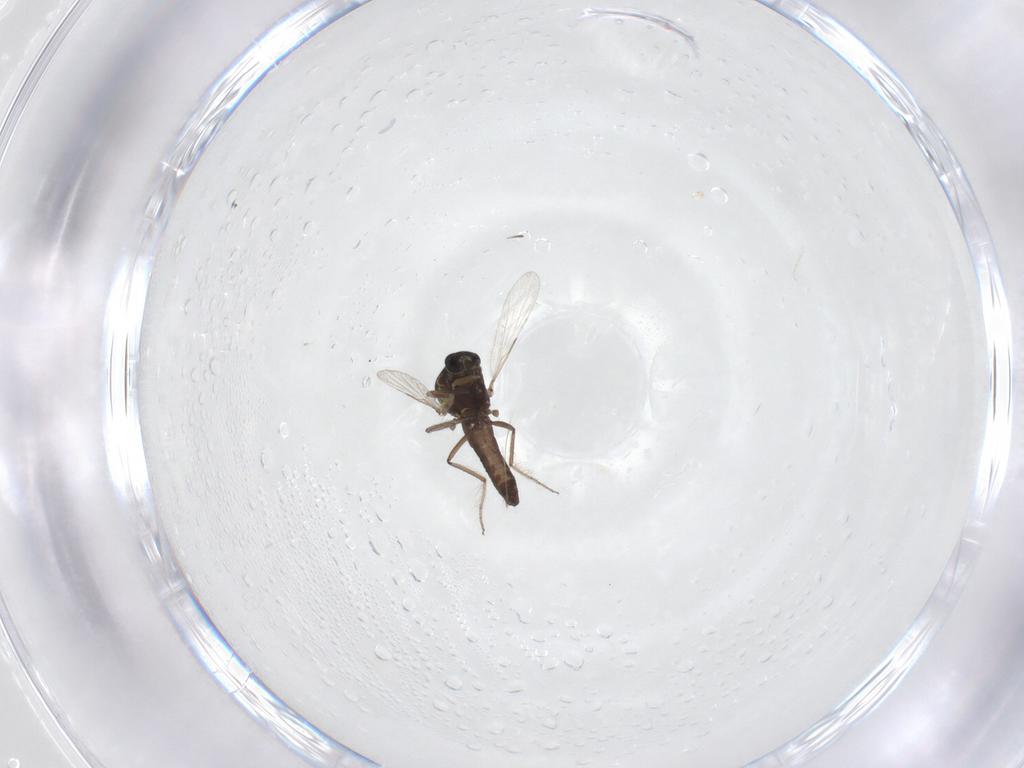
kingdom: Animalia
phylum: Arthropoda
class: Insecta
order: Diptera
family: Ceratopogonidae
